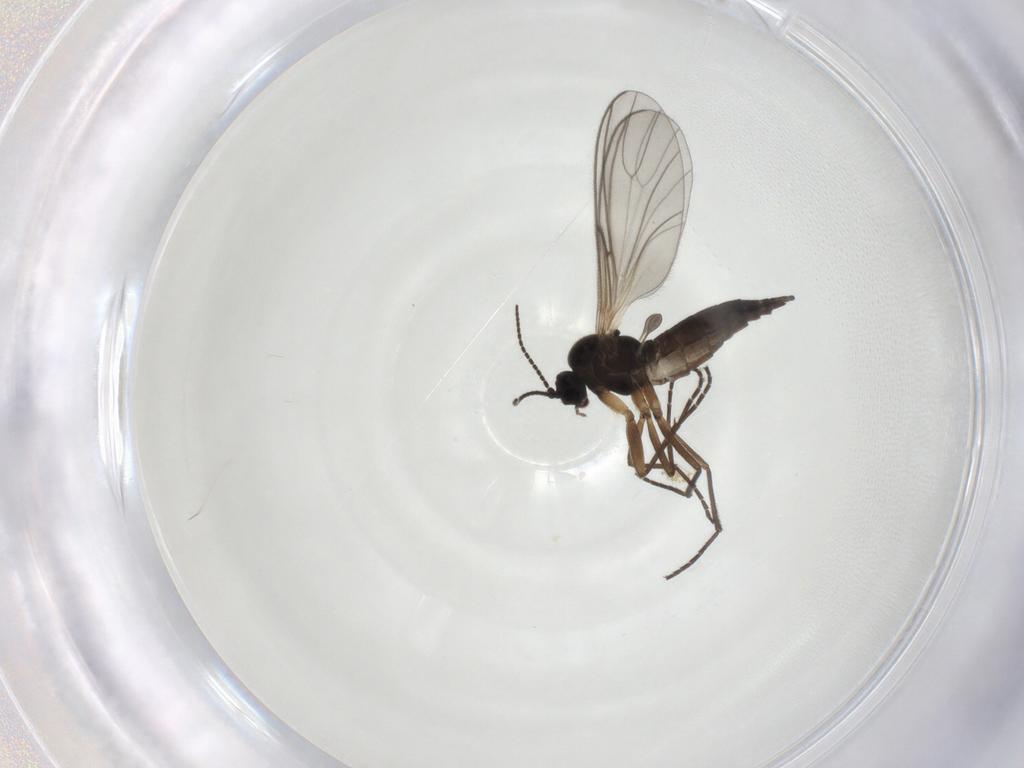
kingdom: Animalia
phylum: Arthropoda
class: Insecta
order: Diptera
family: Ceratopogonidae
